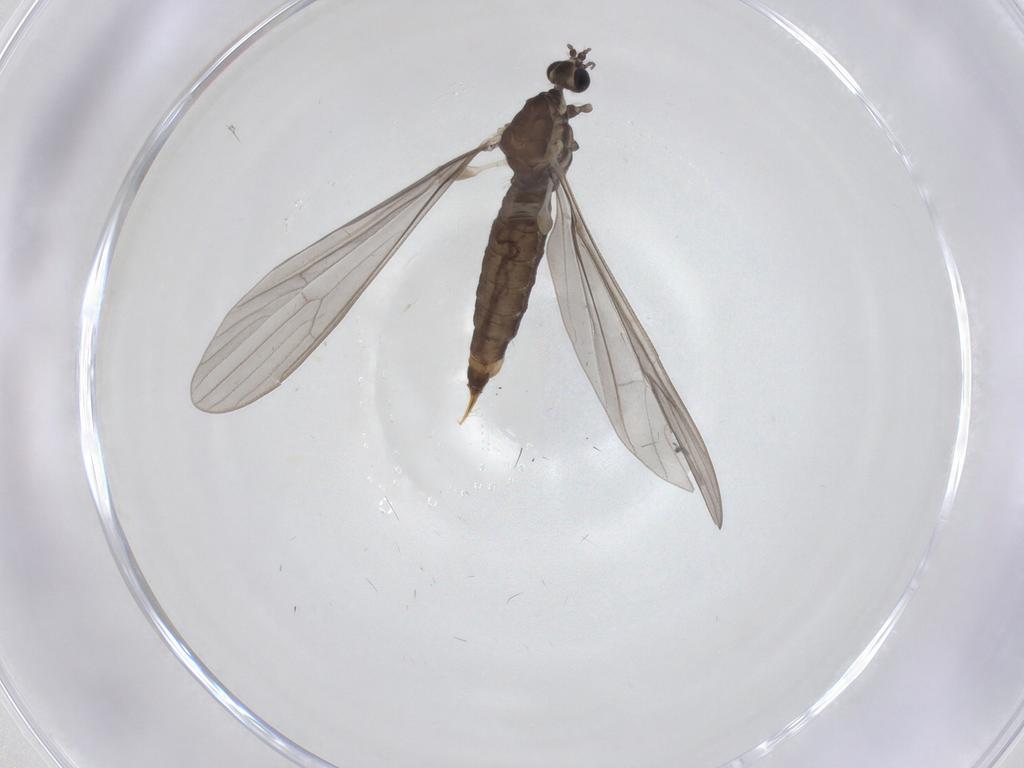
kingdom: Animalia
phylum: Arthropoda
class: Insecta
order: Diptera
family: Limoniidae
